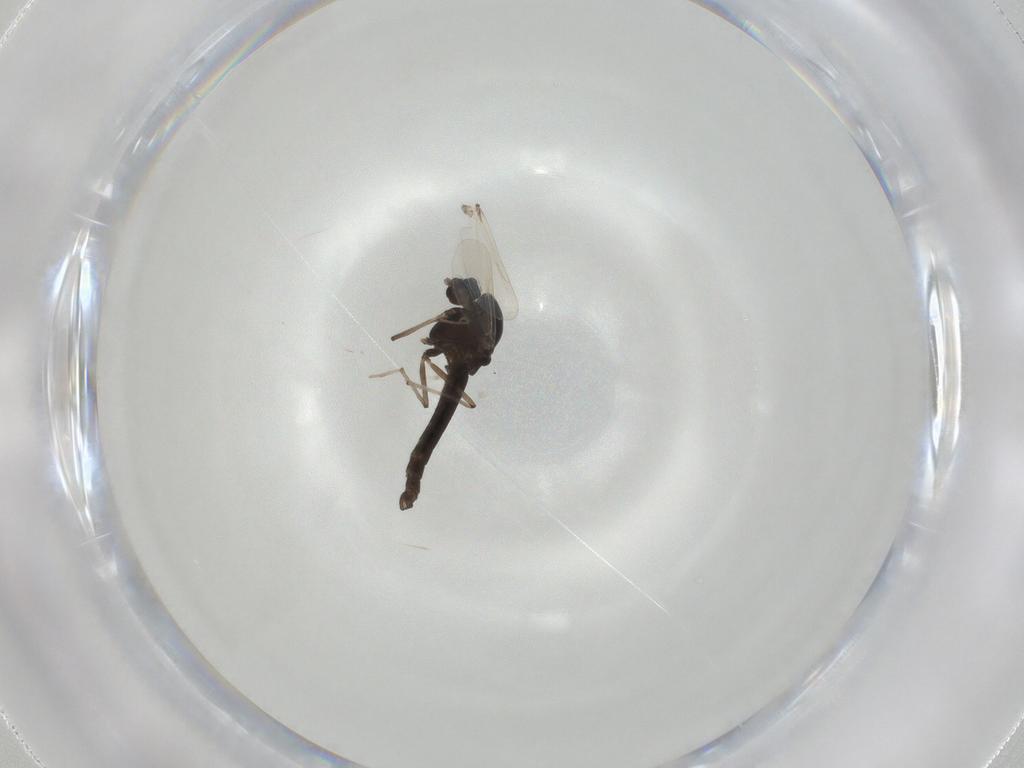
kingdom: Animalia
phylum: Arthropoda
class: Insecta
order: Diptera
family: Chironomidae
